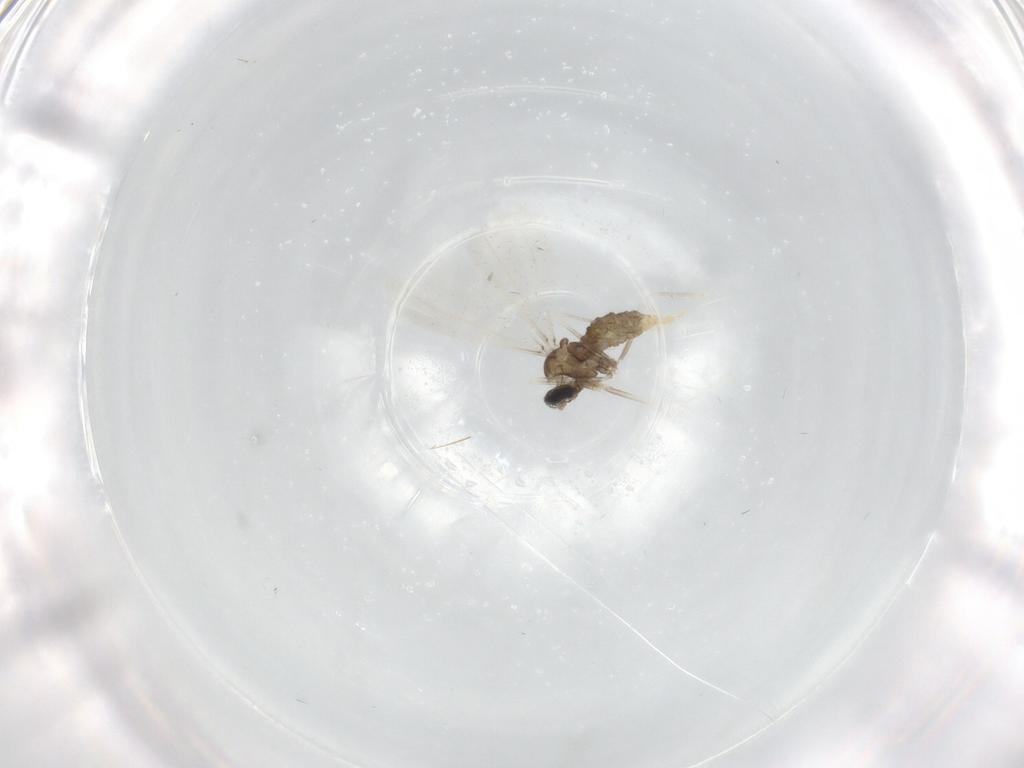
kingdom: Animalia
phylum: Arthropoda
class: Insecta
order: Diptera
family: Cecidomyiidae
